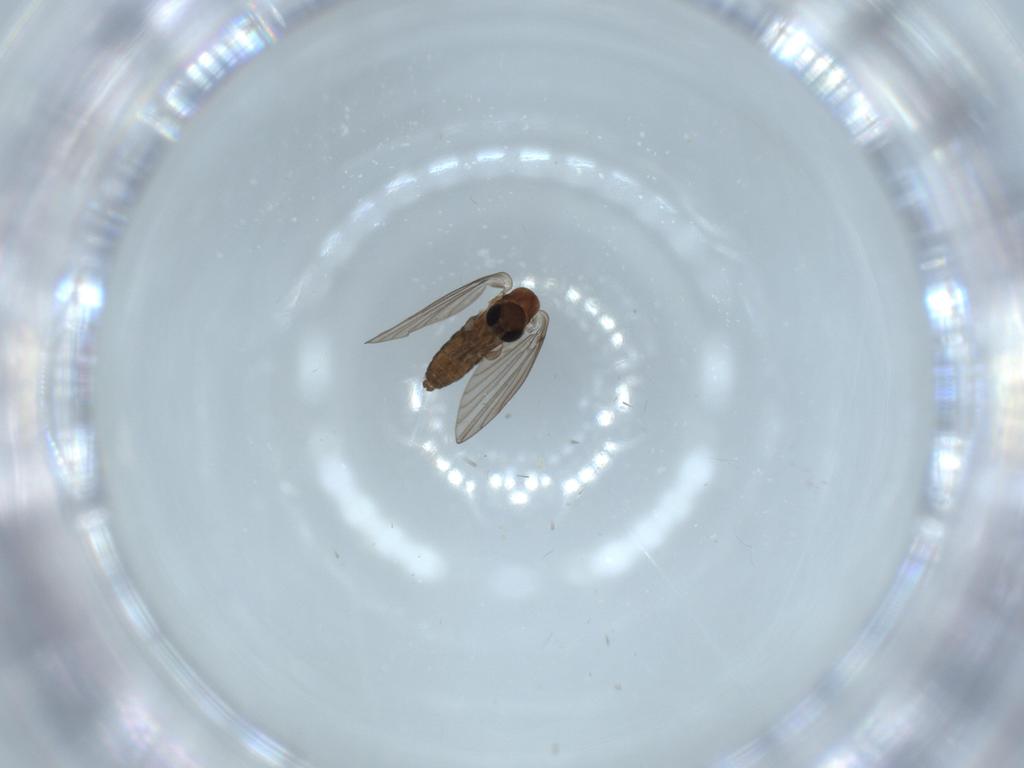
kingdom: Animalia
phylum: Arthropoda
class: Insecta
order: Diptera
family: Psychodidae
